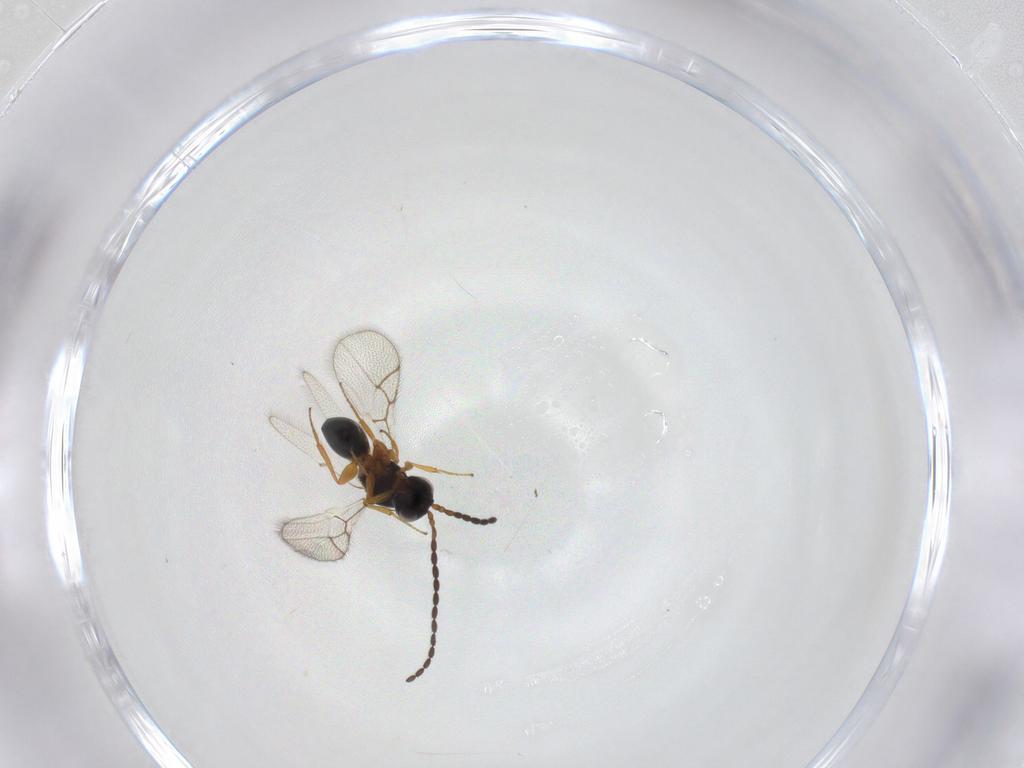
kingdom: Animalia
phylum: Arthropoda
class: Insecta
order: Hymenoptera
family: Figitidae
